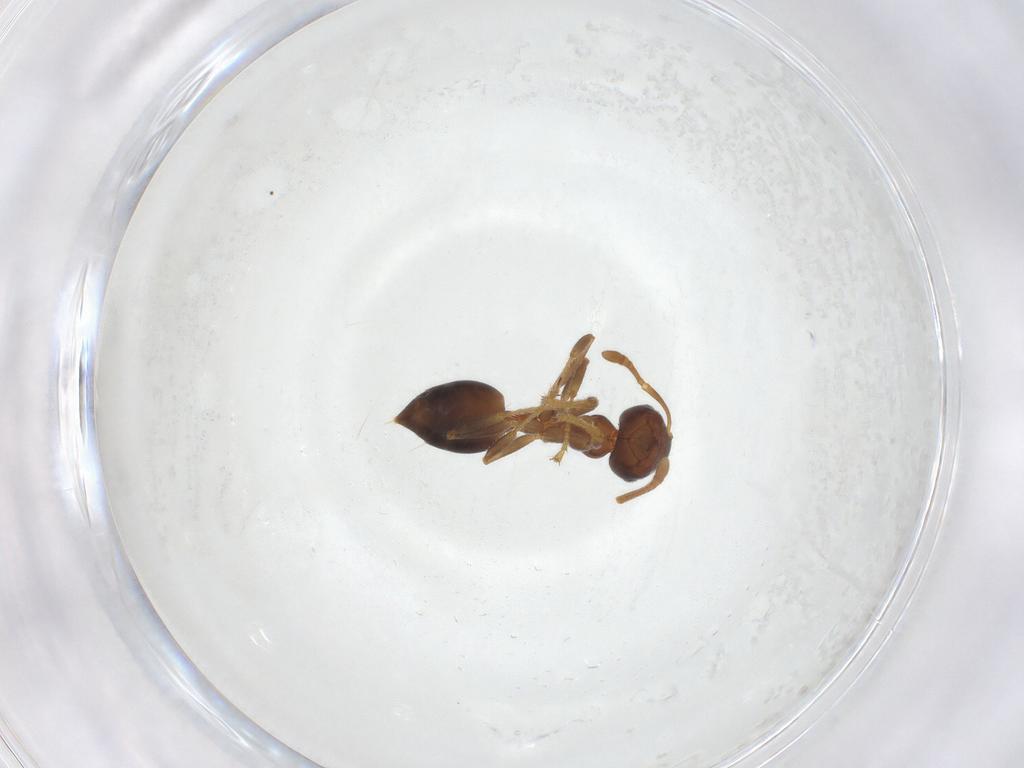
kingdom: Animalia
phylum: Arthropoda
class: Insecta
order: Hymenoptera
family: Formicidae
